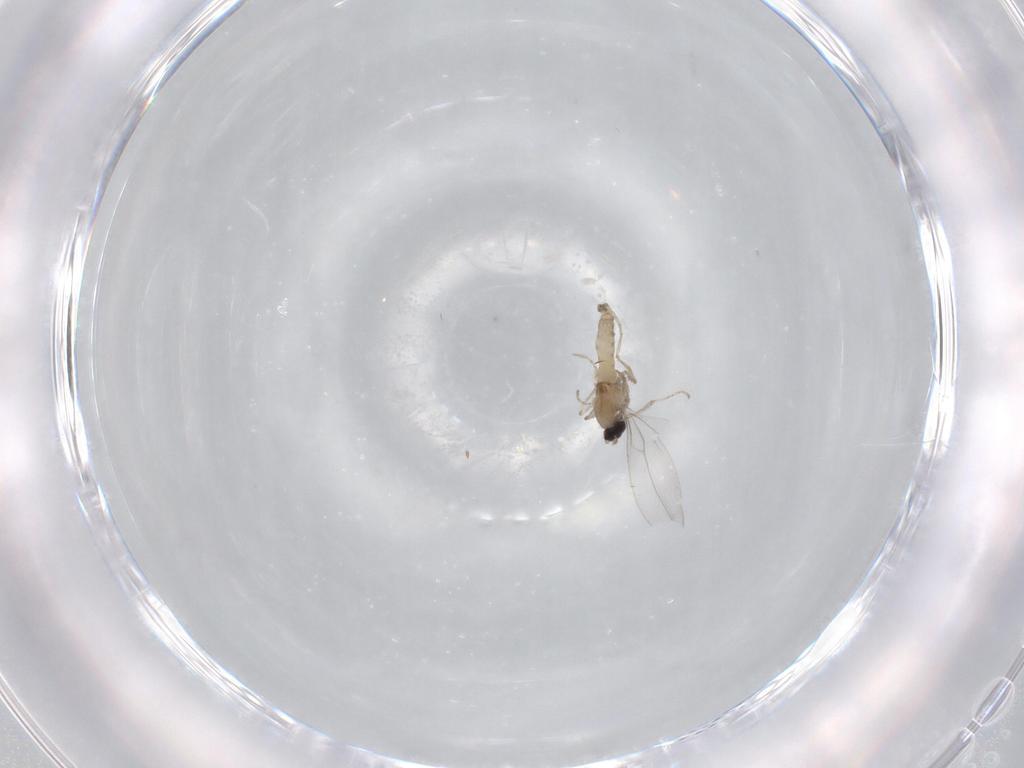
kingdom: Animalia
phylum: Arthropoda
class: Insecta
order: Diptera
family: Cecidomyiidae
